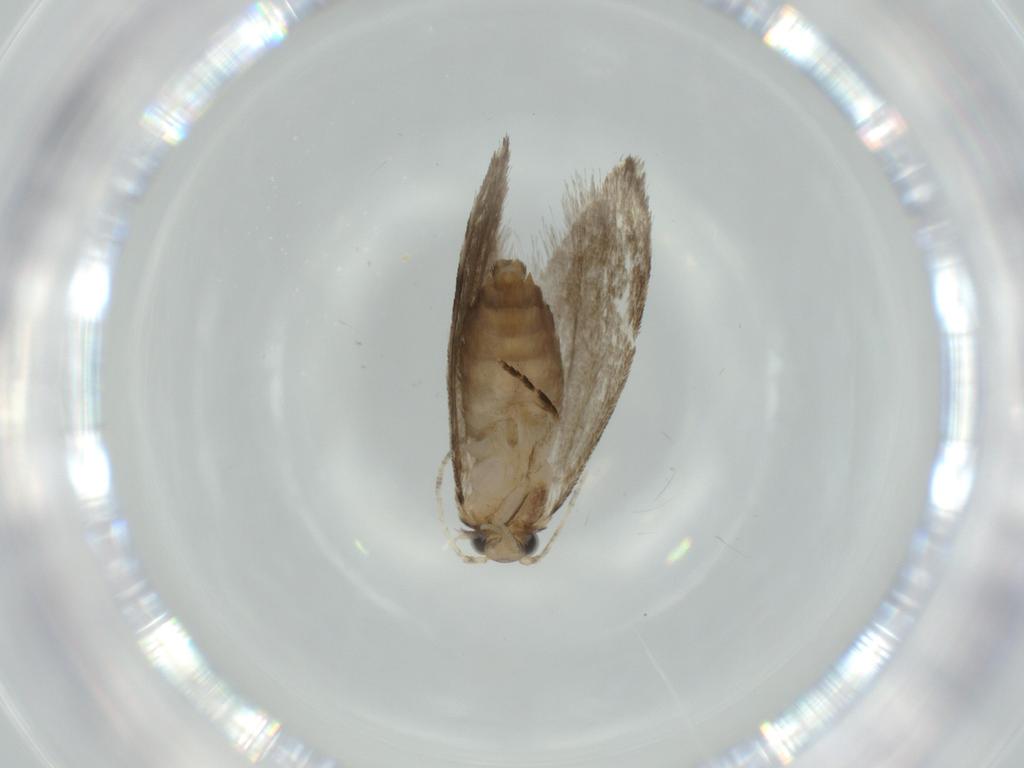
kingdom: Animalia
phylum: Arthropoda
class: Insecta
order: Lepidoptera
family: Tineidae
